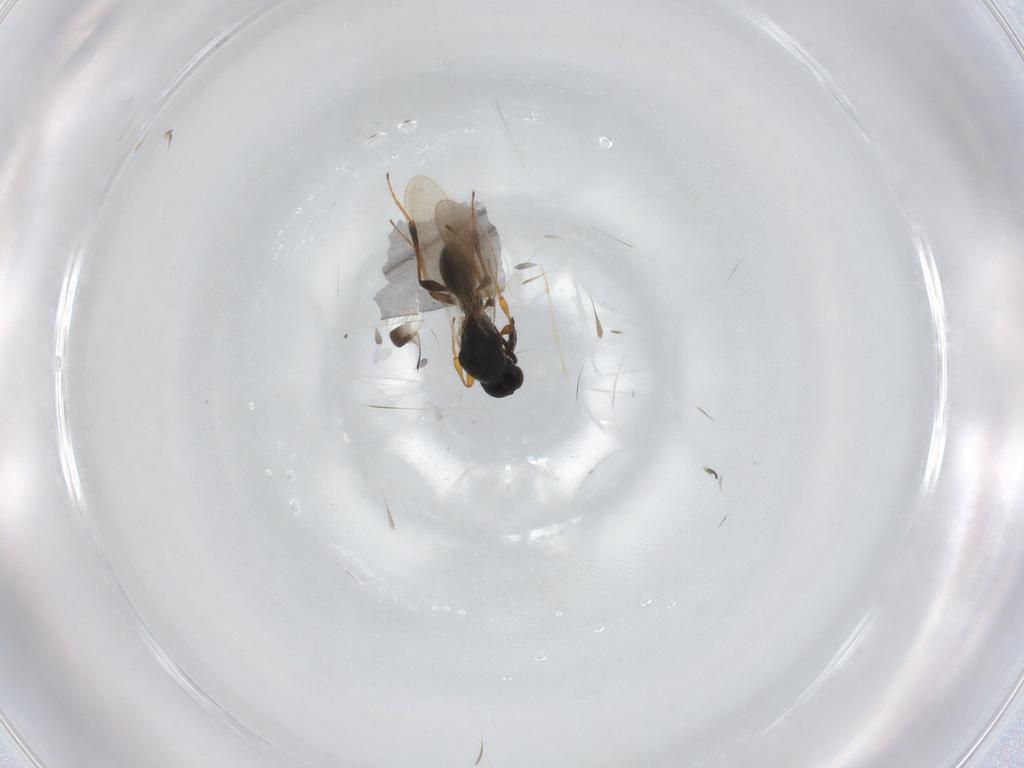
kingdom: Animalia
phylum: Arthropoda
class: Insecta
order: Hymenoptera
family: Platygastridae
